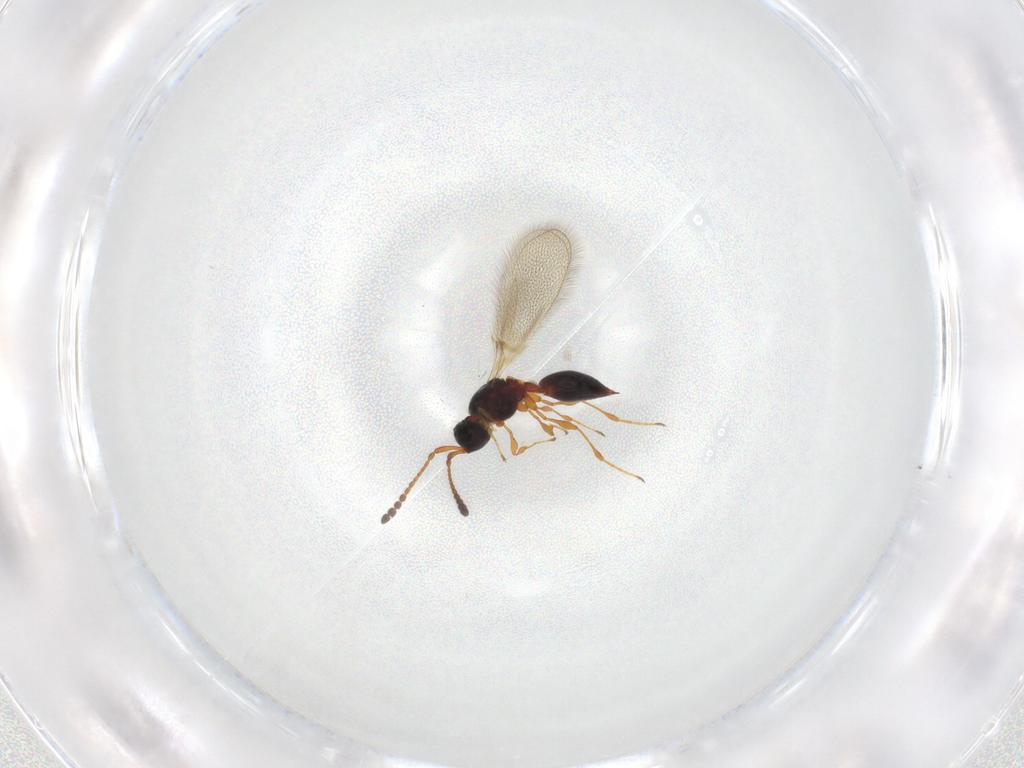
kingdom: Animalia
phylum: Arthropoda
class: Insecta
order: Hymenoptera
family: Diapriidae
